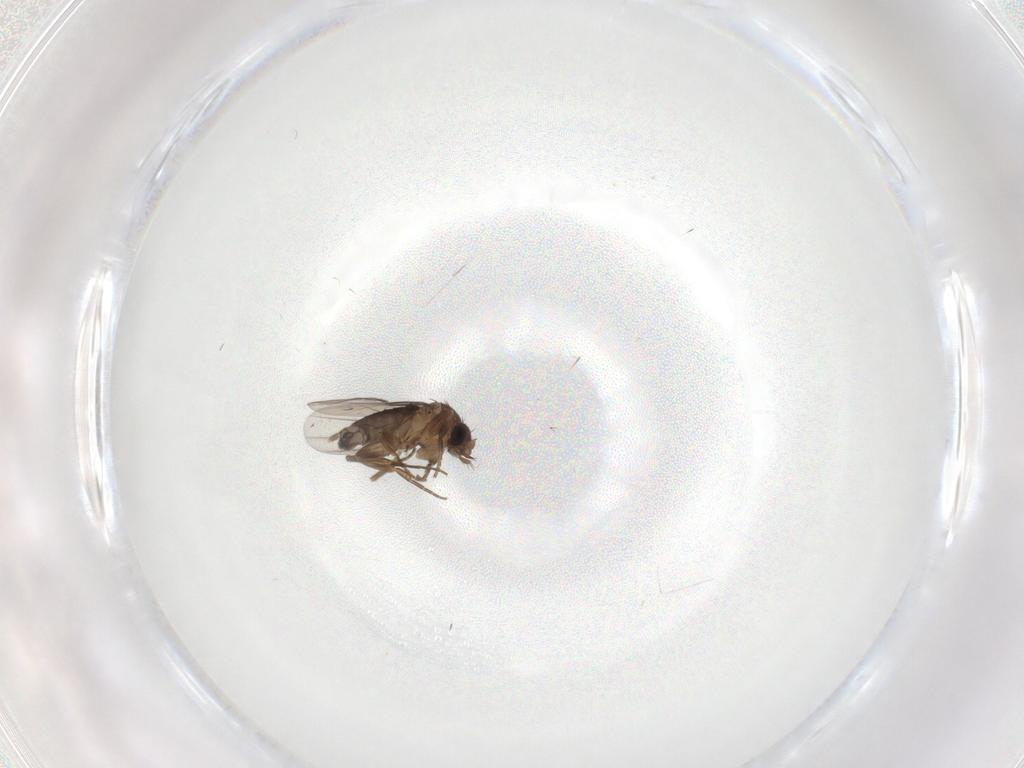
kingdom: Animalia
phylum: Arthropoda
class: Insecta
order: Diptera
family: Phoridae
